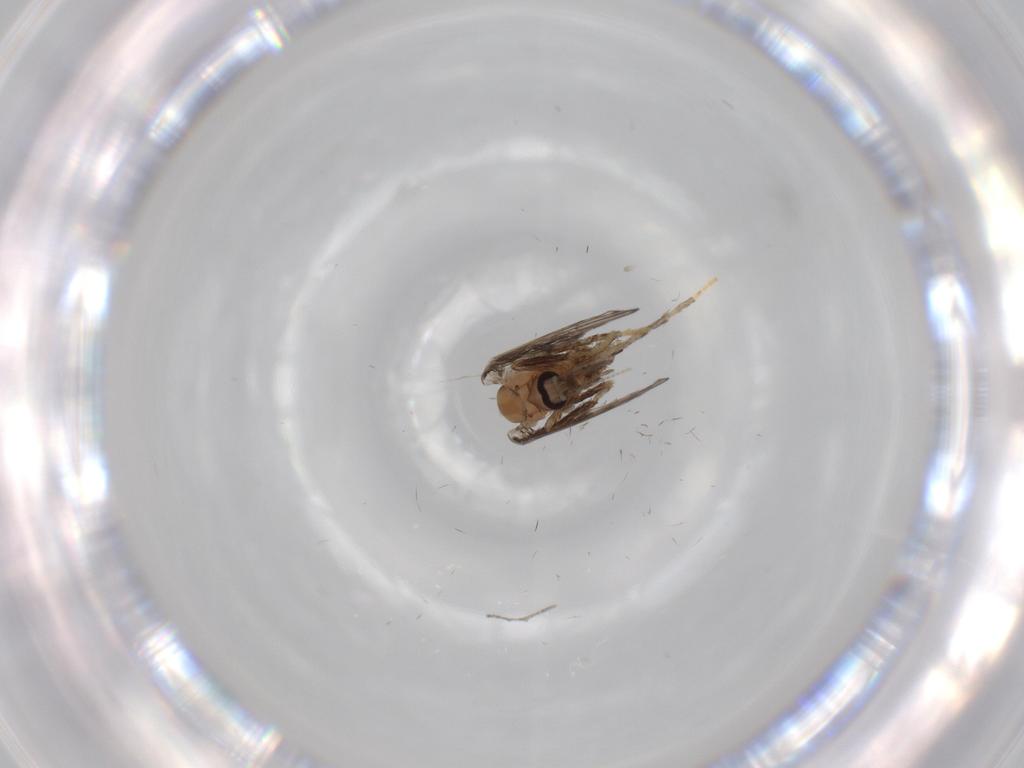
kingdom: Animalia
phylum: Arthropoda
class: Insecta
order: Diptera
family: Psychodidae
